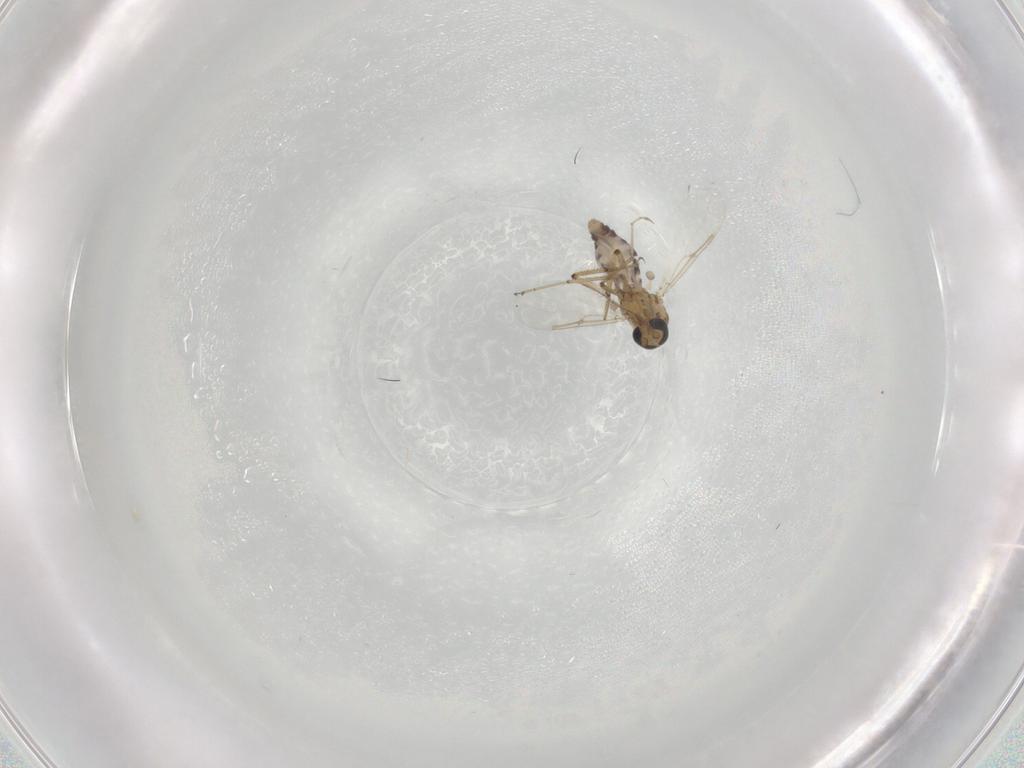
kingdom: Animalia
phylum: Arthropoda
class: Insecta
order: Diptera
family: Ceratopogonidae
